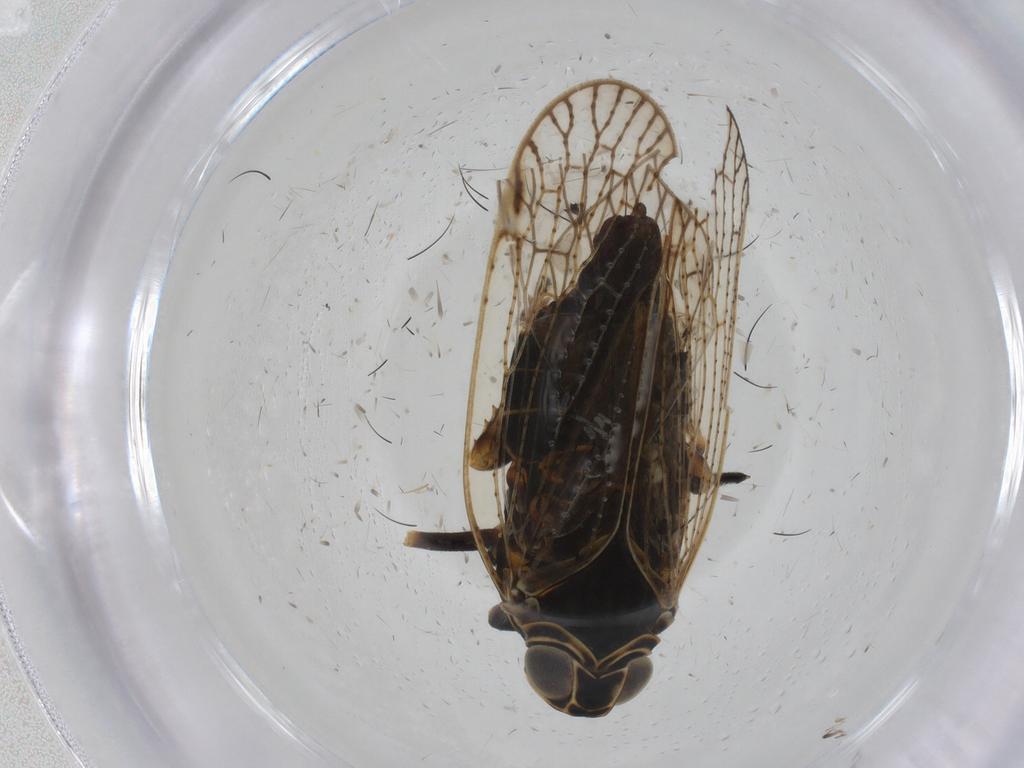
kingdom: Animalia
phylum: Arthropoda
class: Insecta
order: Hemiptera
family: Cixiidae
